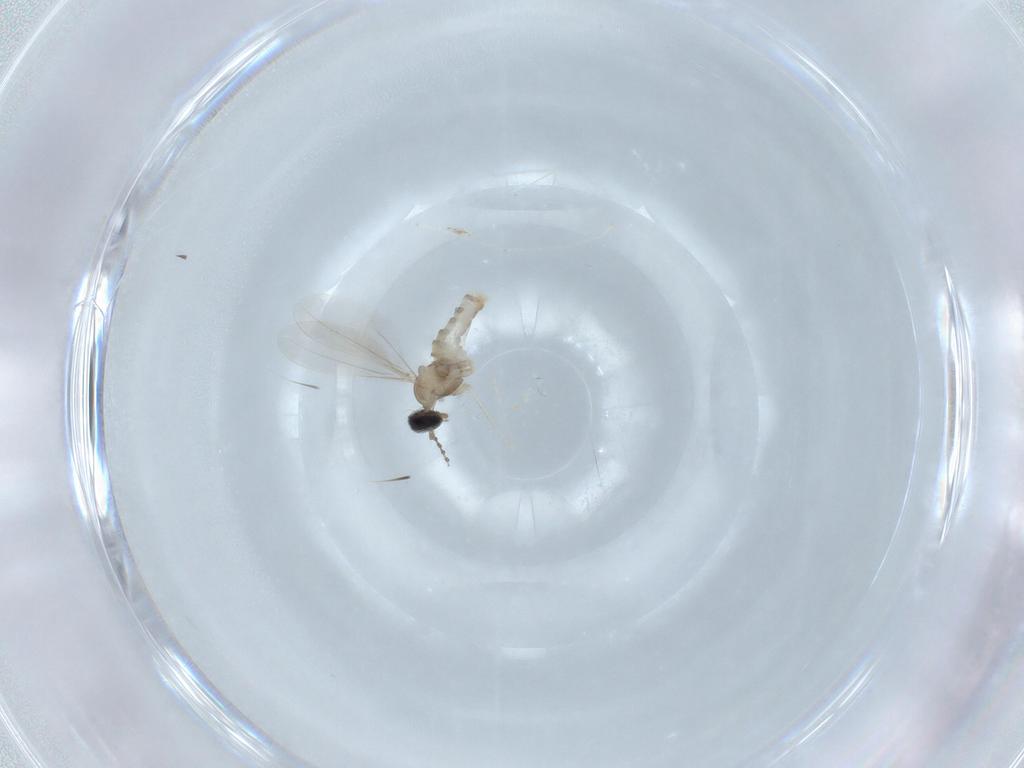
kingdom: Animalia
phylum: Arthropoda
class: Insecta
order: Diptera
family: Cecidomyiidae
